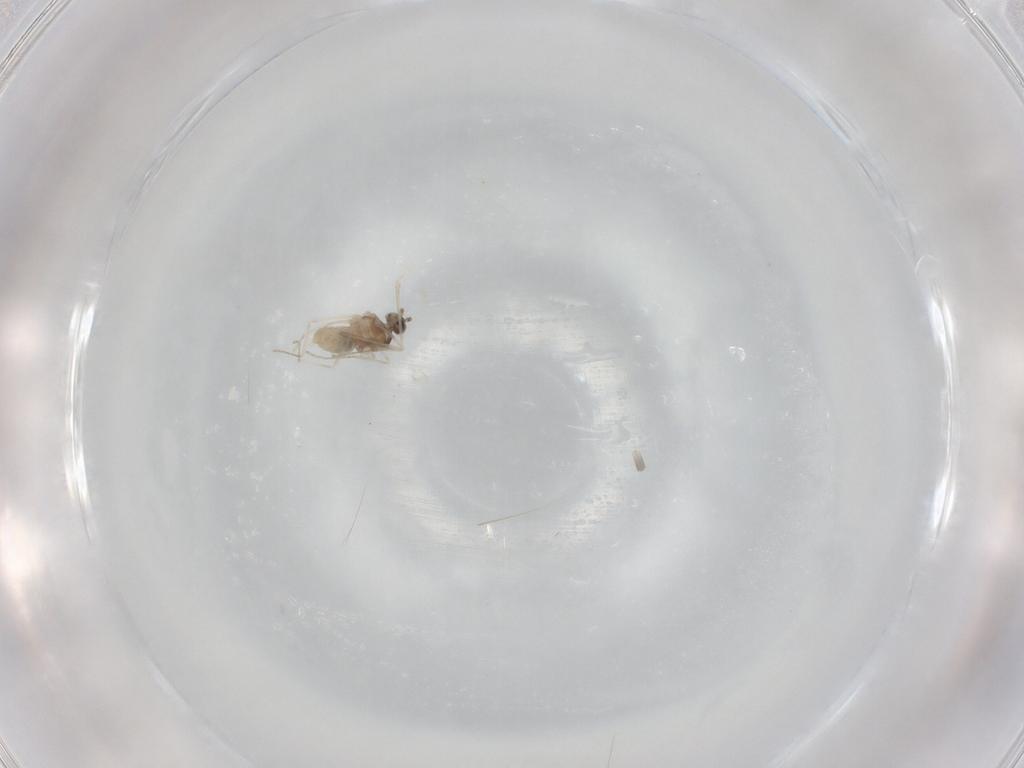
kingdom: Animalia
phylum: Arthropoda
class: Insecta
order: Diptera
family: Cecidomyiidae
